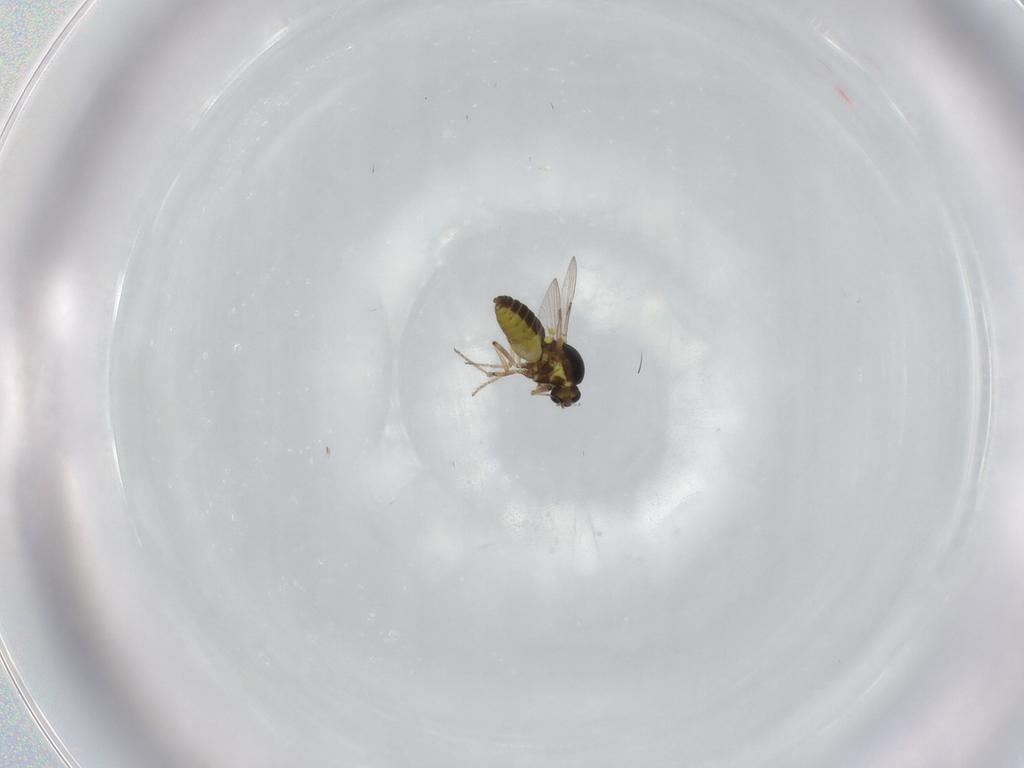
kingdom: Animalia
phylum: Arthropoda
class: Insecta
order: Diptera
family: Ceratopogonidae
